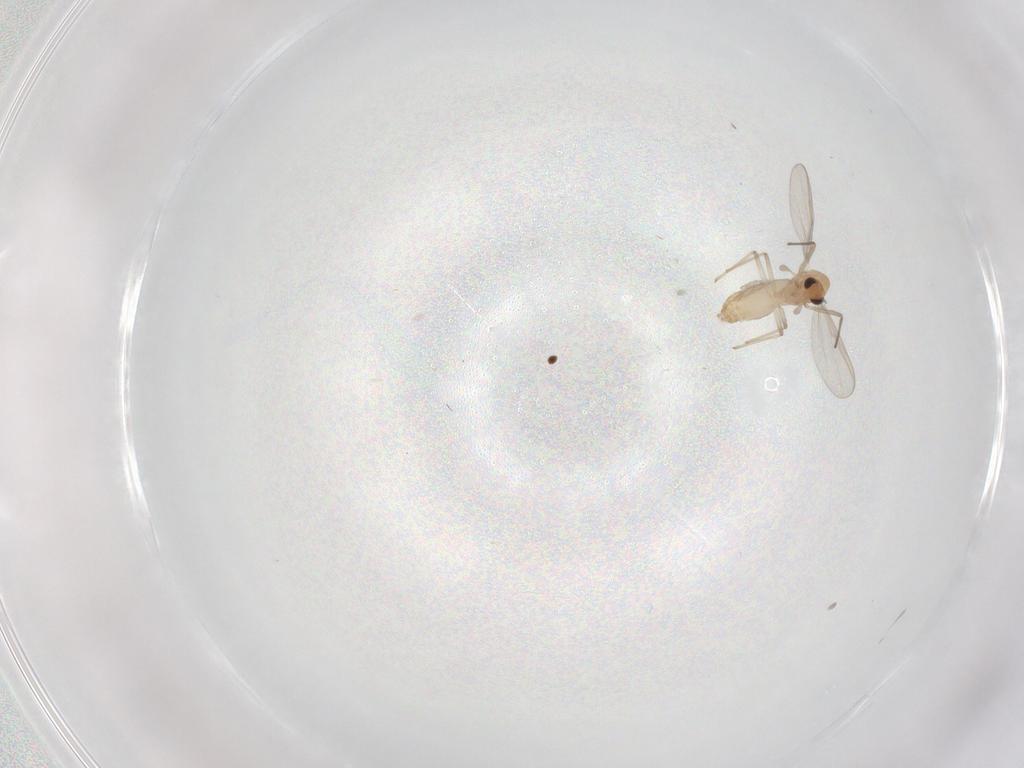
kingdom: Animalia
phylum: Arthropoda
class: Insecta
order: Diptera
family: Chironomidae
